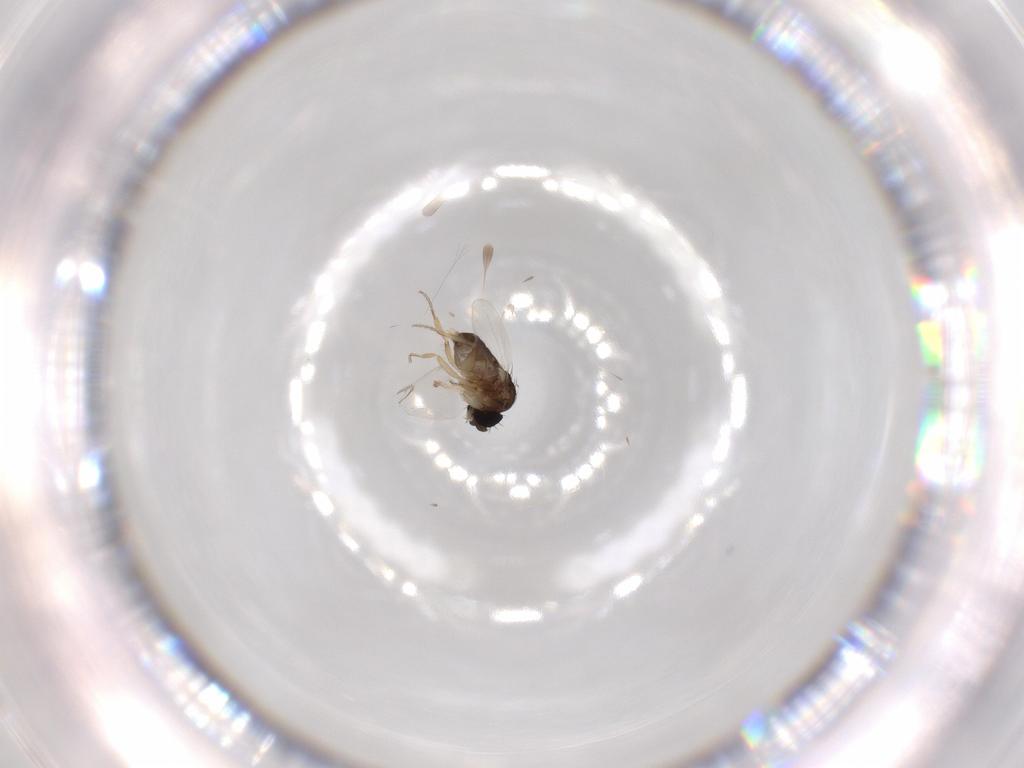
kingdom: Animalia
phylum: Arthropoda
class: Insecta
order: Diptera
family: Phoridae
